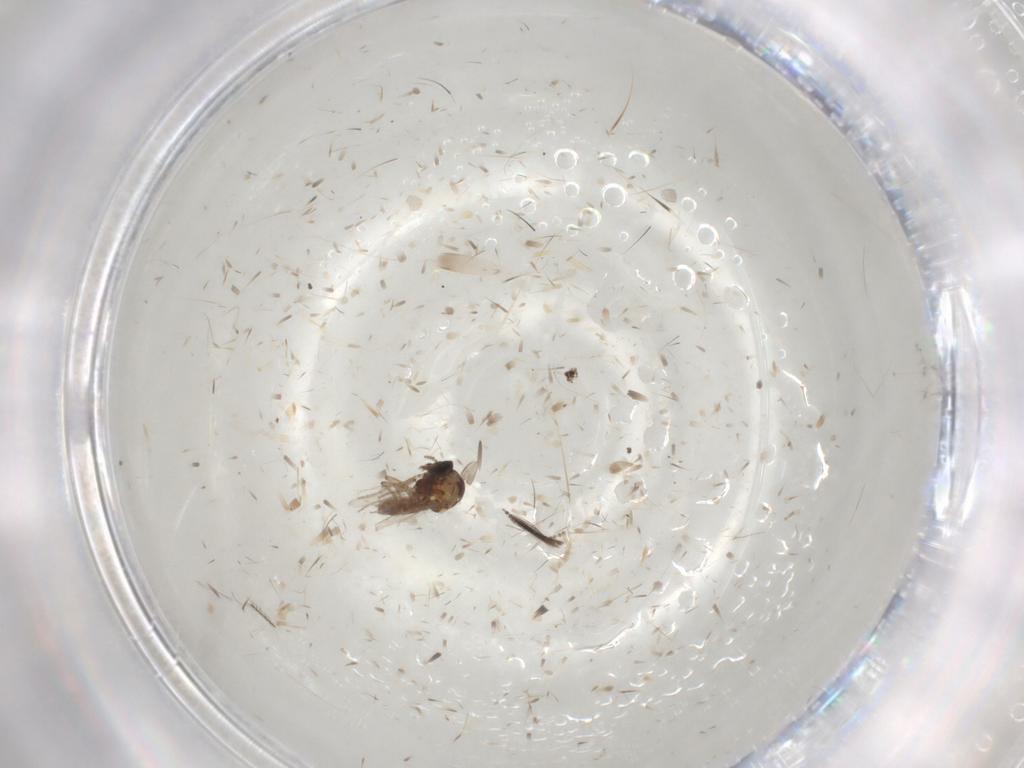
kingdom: Animalia
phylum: Arthropoda
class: Insecta
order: Diptera
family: Ceratopogonidae
